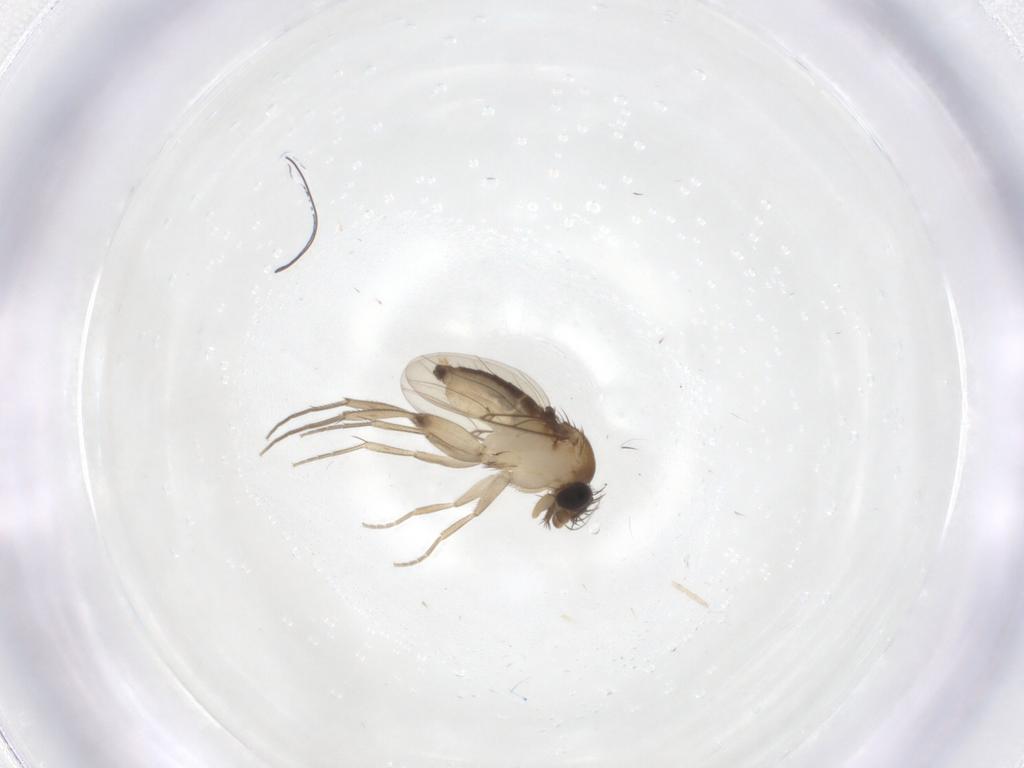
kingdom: Animalia
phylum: Arthropoda
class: Insecta
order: Diptera
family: Phoridae
